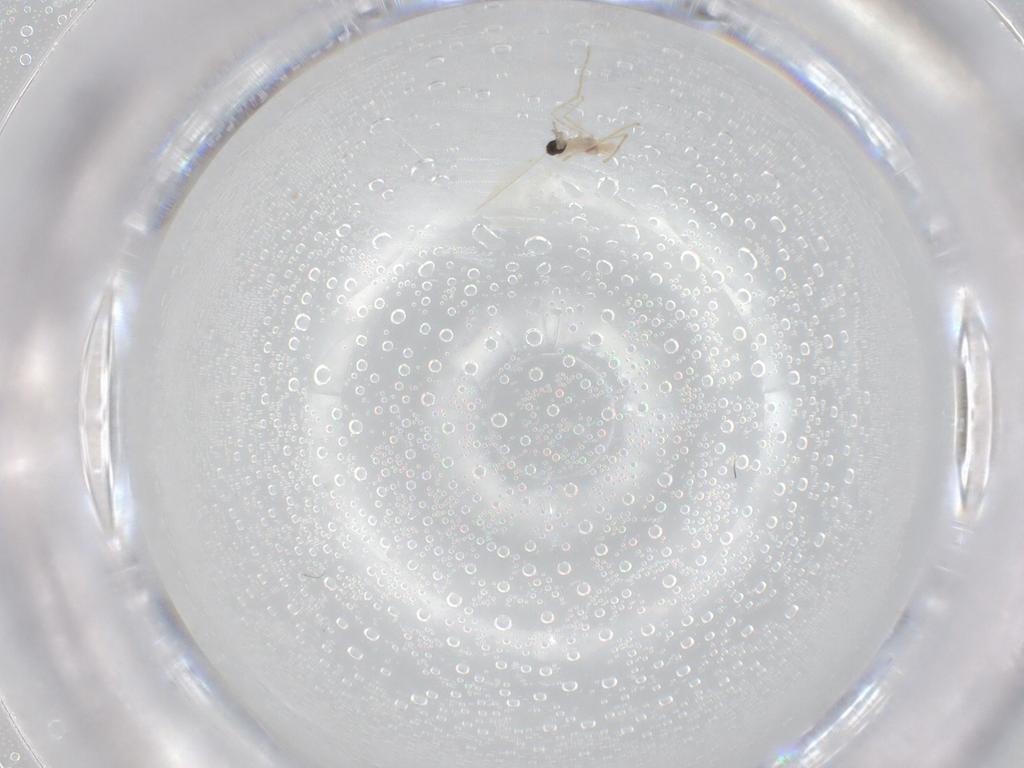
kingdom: Animalia
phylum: Arthropoda
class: Insecta
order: Diptera
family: Cecidomyiidae
